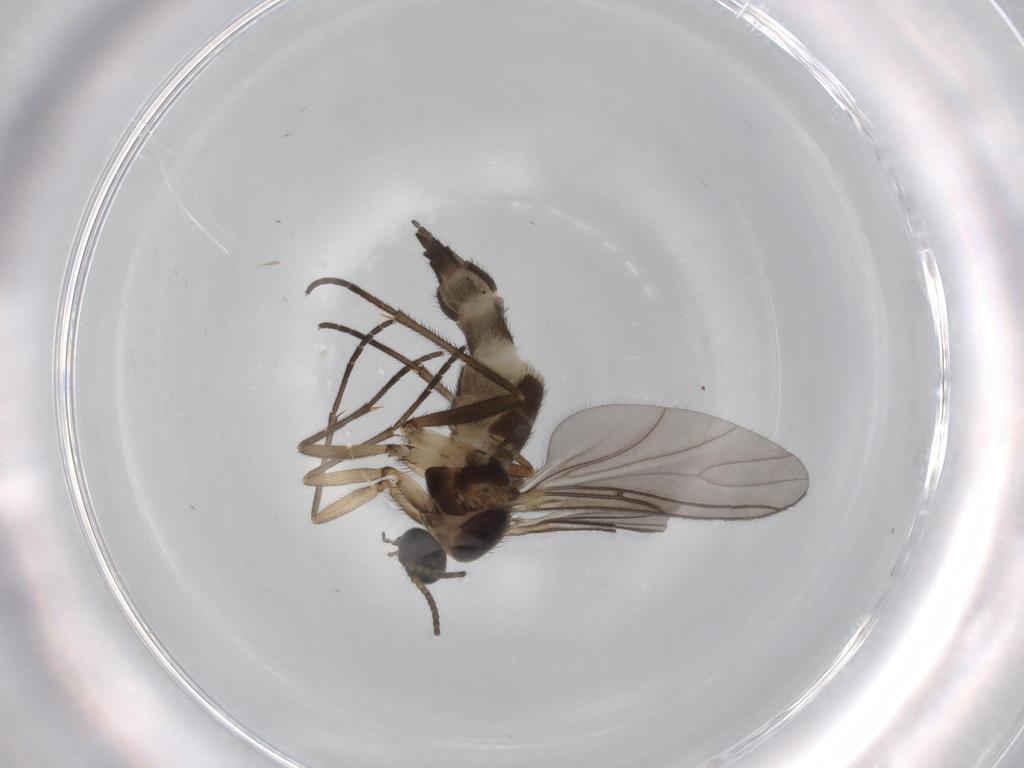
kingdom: Animalia
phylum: Arthropoda
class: Insecta
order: Diptera
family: Sciaridae
